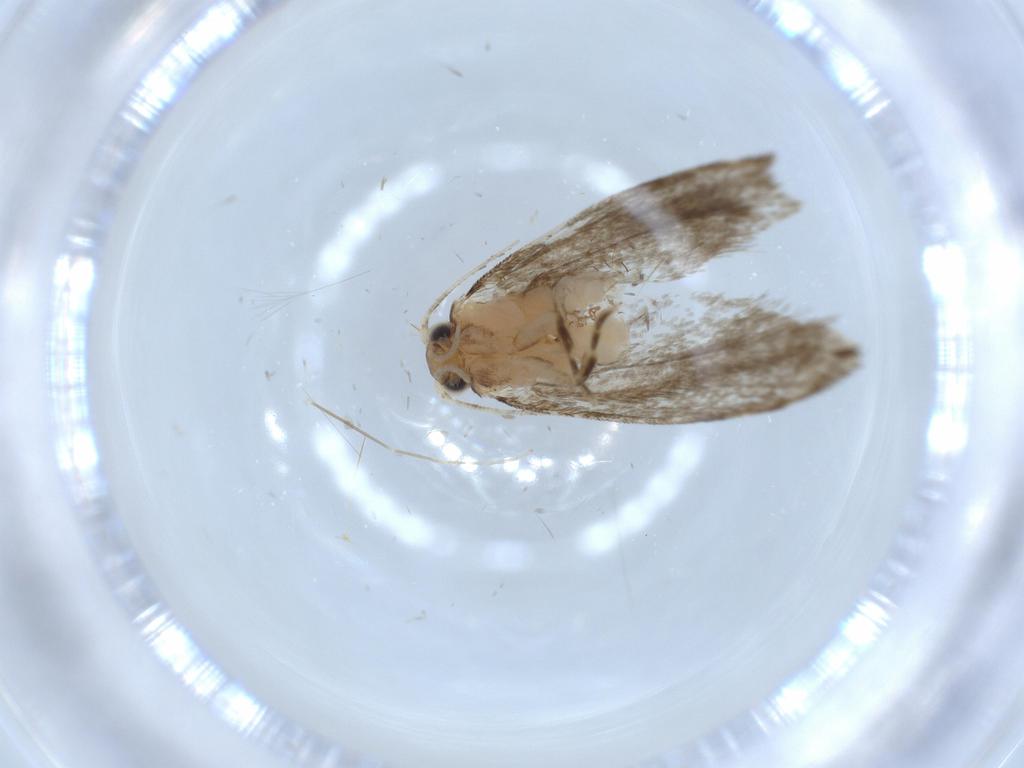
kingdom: Animalia
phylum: Arthropoda
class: Insecta
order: Lepidoptera
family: Tineidae
